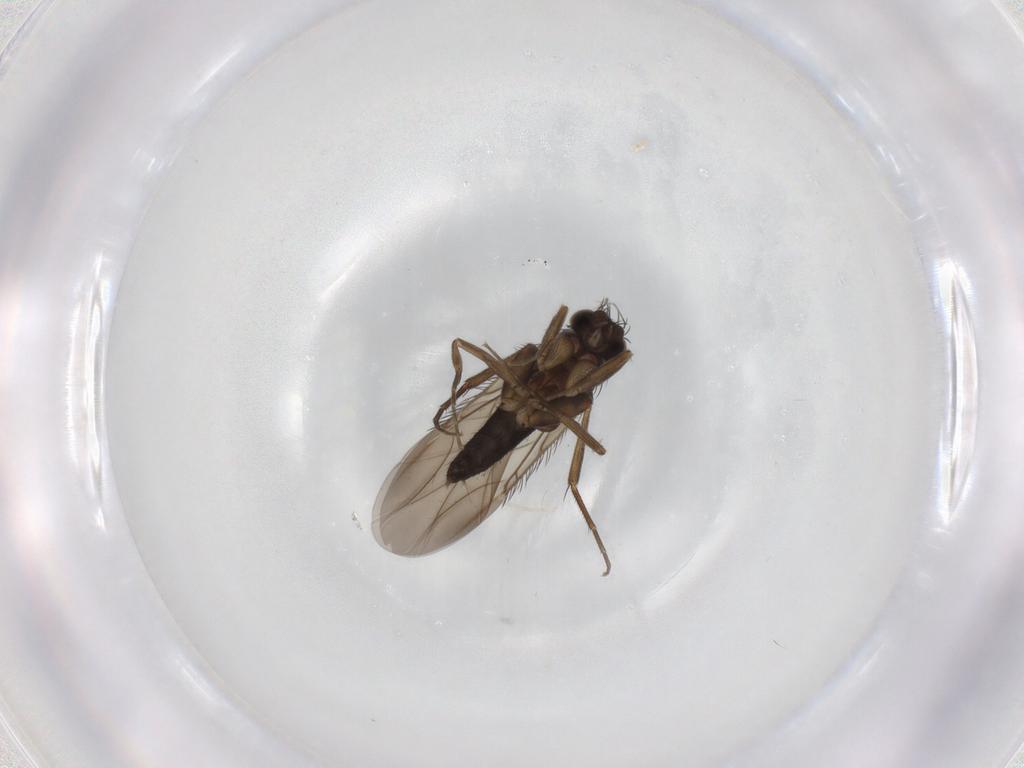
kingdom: Animalia
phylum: Arthropoda
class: Insecta
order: Diptera
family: Phoridae
